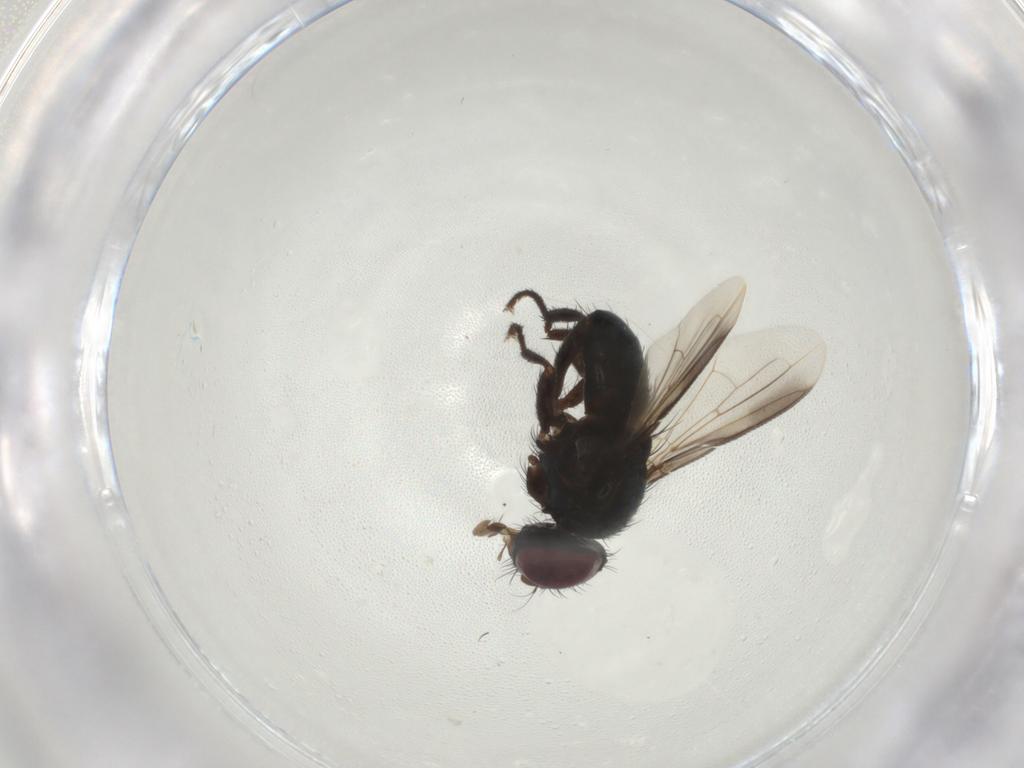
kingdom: Animalia
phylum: Arthropoda
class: Insecta
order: Diptera
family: Tachinidae
